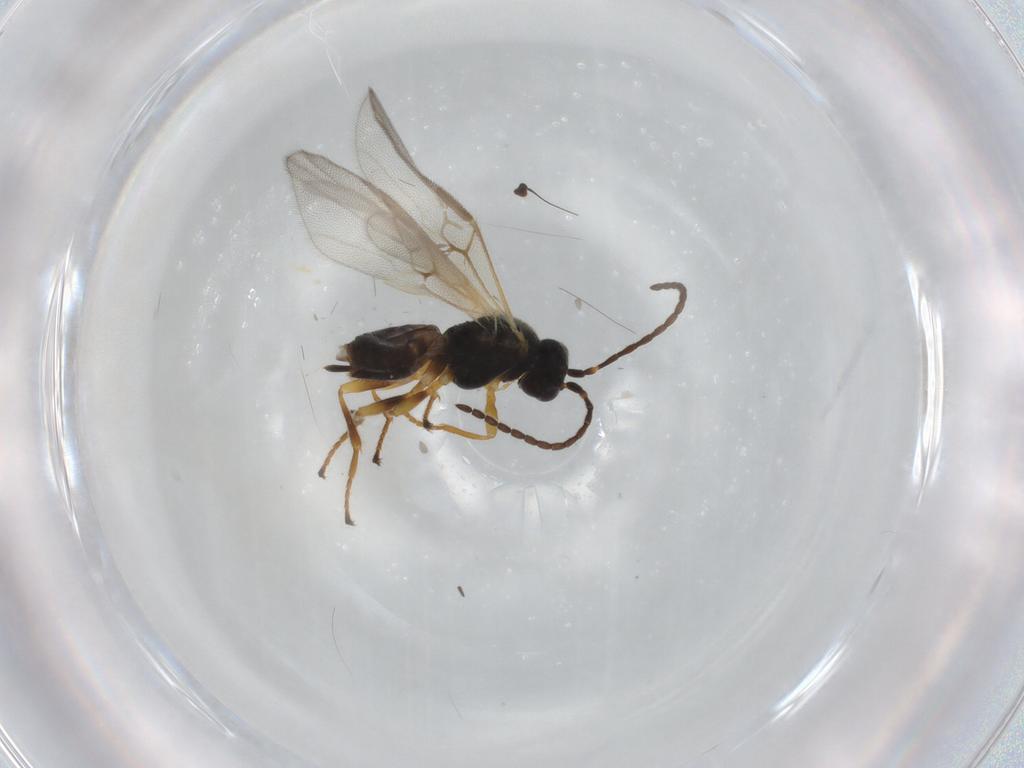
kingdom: Animalia
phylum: Arthropoda
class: Insecta
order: Hymenoptera
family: Braconidae
